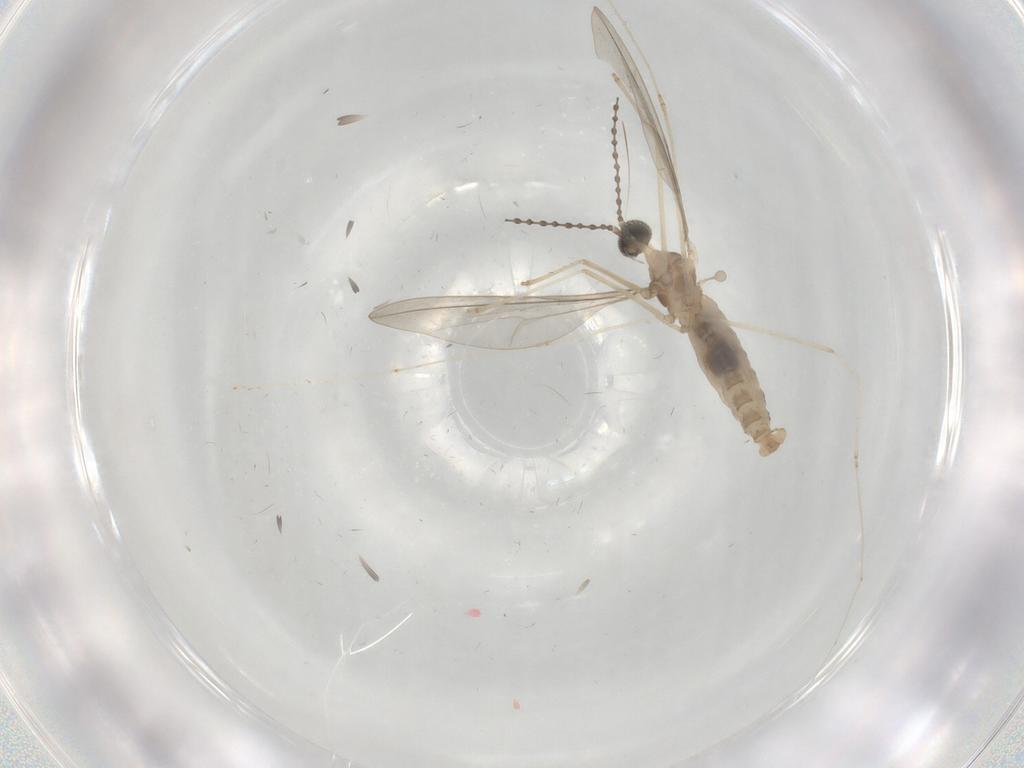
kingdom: Animalia
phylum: Arthropoda
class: Insecta
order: Diptera
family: Cecidomyiidae
